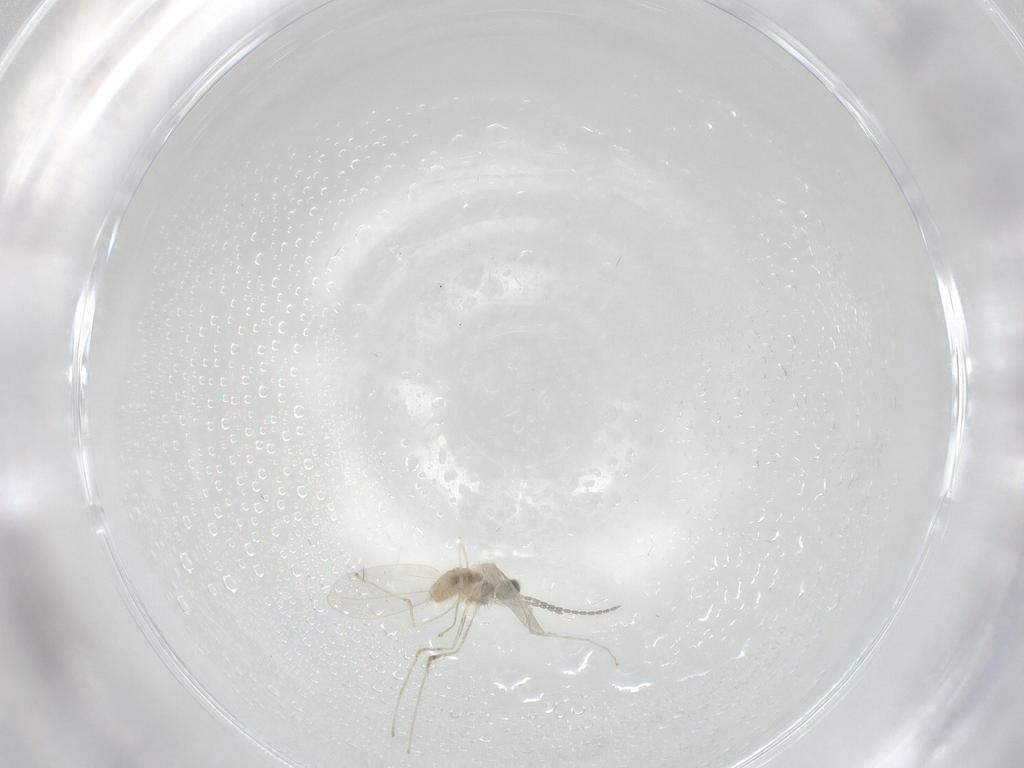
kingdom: Animalia
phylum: Arthropoda
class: Insecta
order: Diptera
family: Cecidomyiidae
